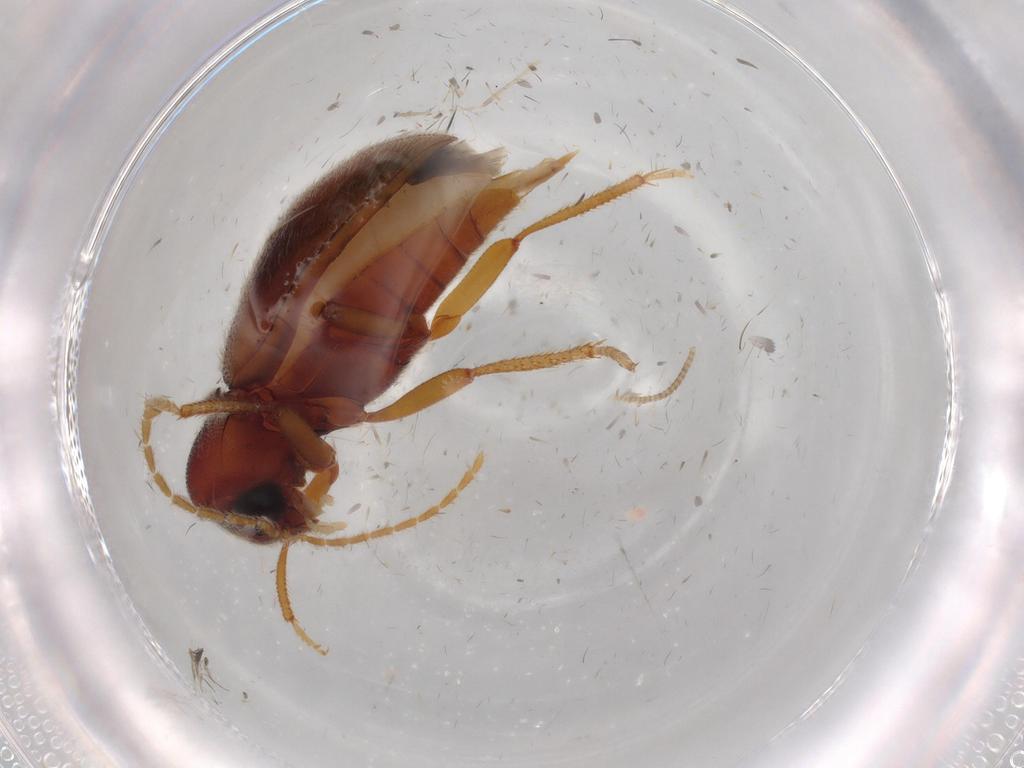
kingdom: Animalia
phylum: Arthropoda
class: Insecta
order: Coleoptera
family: Ptilodactylidae
